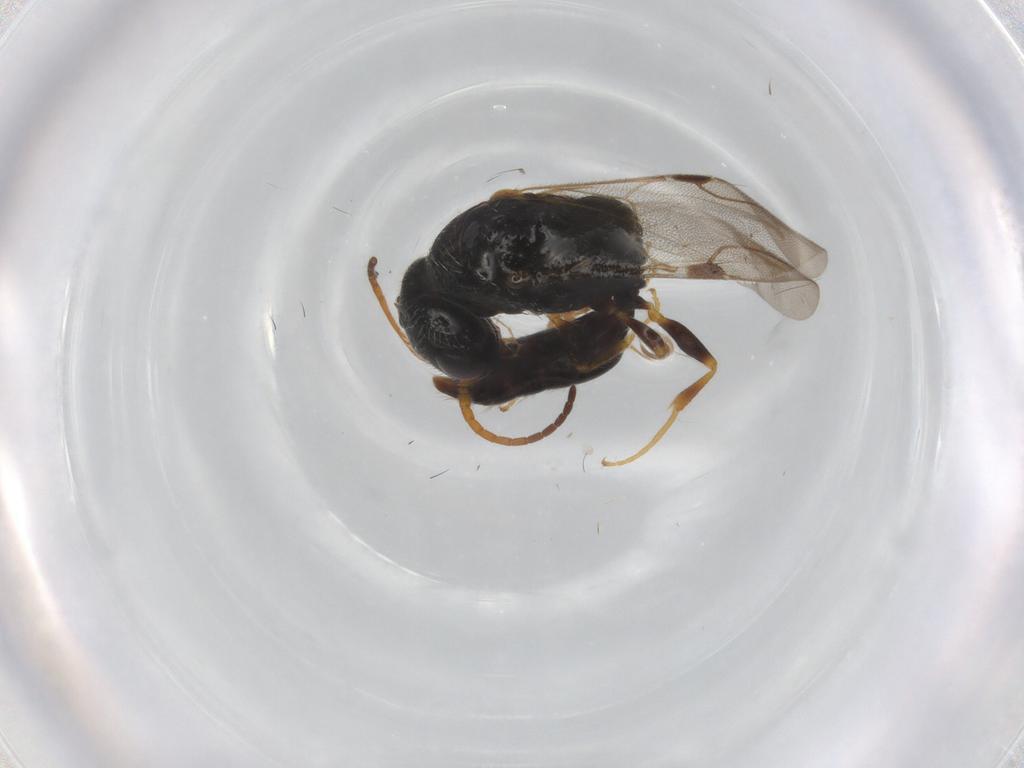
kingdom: Animalia
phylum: Arthropoda
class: Insecta
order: Hymenoptera
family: Bethylidae
